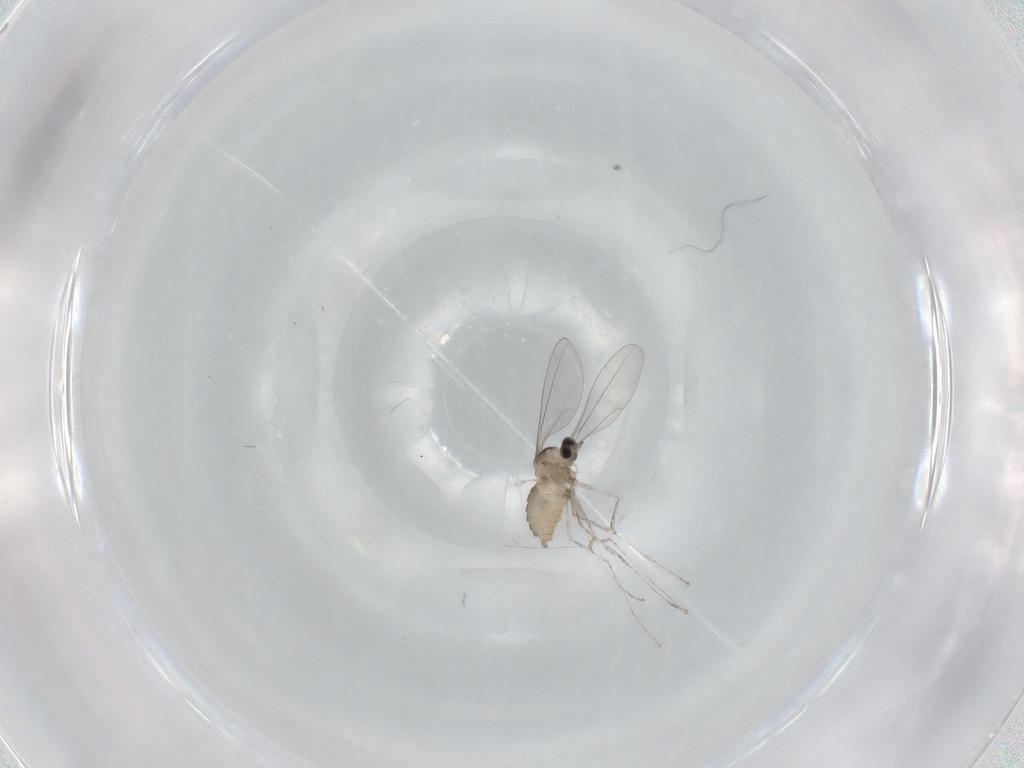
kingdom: Animalia
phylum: Arthropoda
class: Insecta
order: Diptera
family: Cecidomyiidae
